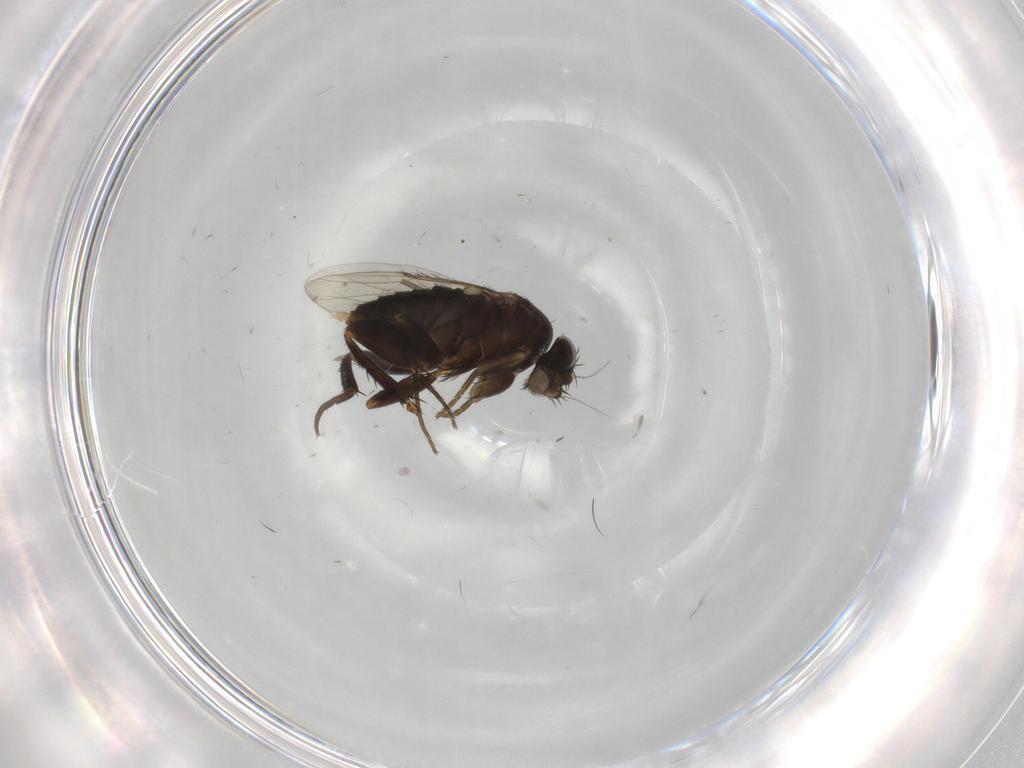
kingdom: Animalia
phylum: Arthropoda
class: Insecta
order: Diptera
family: Phoridae
